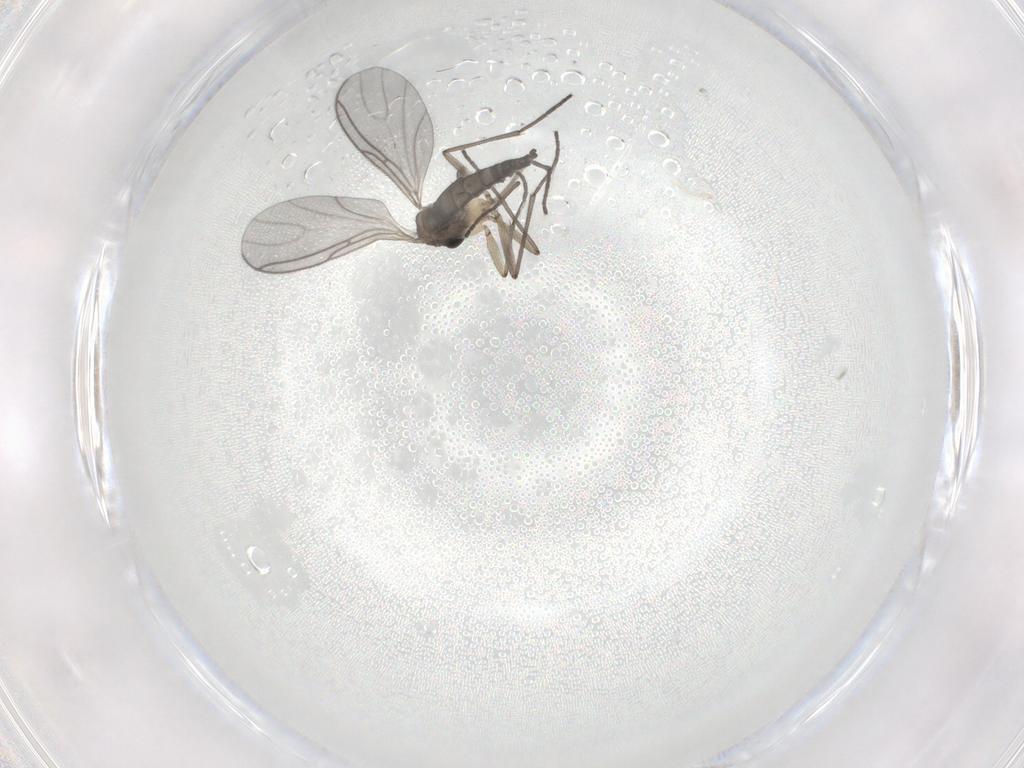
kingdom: Animalia
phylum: Arthropoda
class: Insecta
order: Diptera
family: Sciaridae
